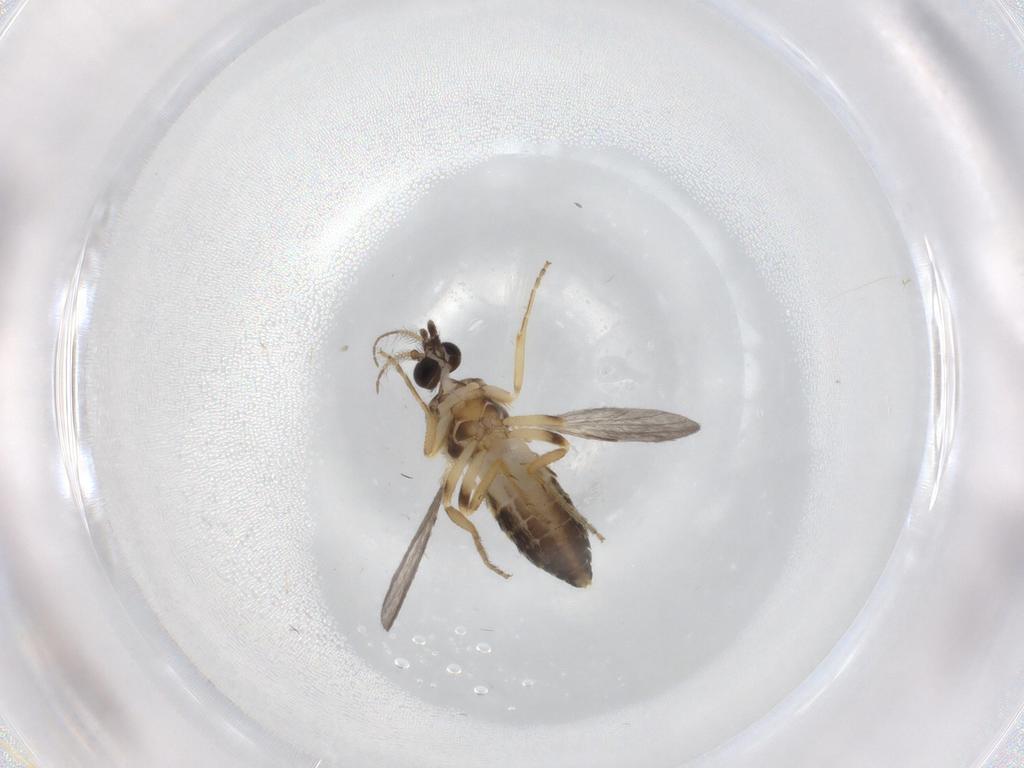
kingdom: Animalia
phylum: Arthropoda
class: Insecta
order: Diptera
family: Ceratopogonidae
